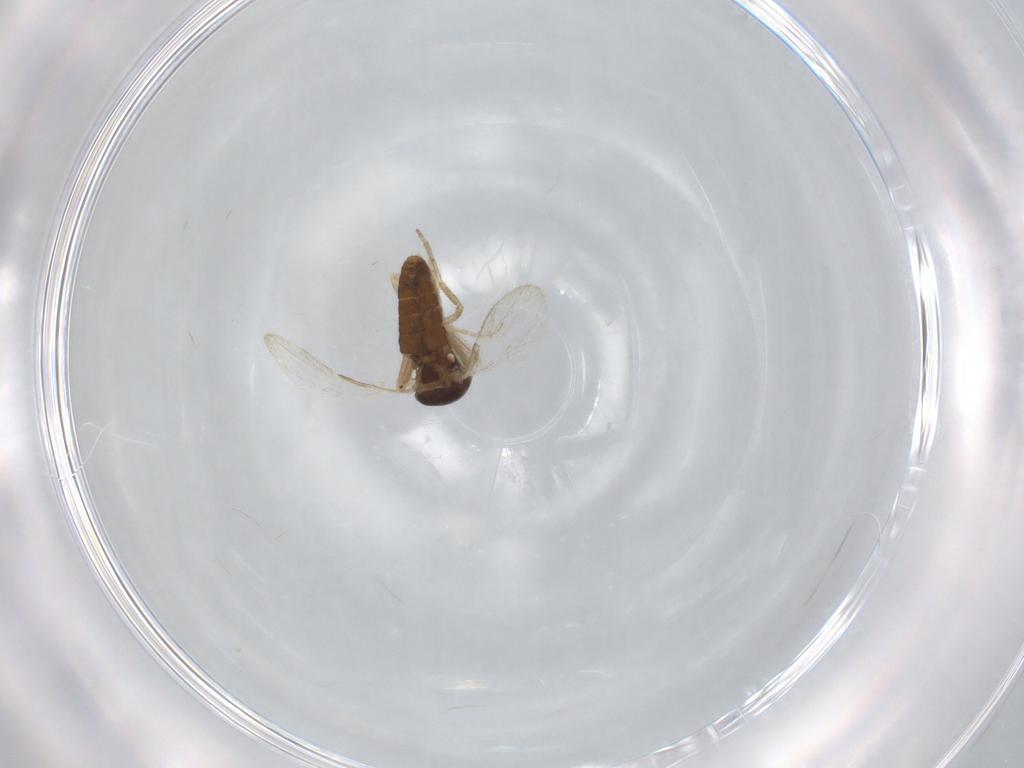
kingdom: Animalia
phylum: Arthropoda
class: Insecta
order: Diptera
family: Ceratopogonidae
